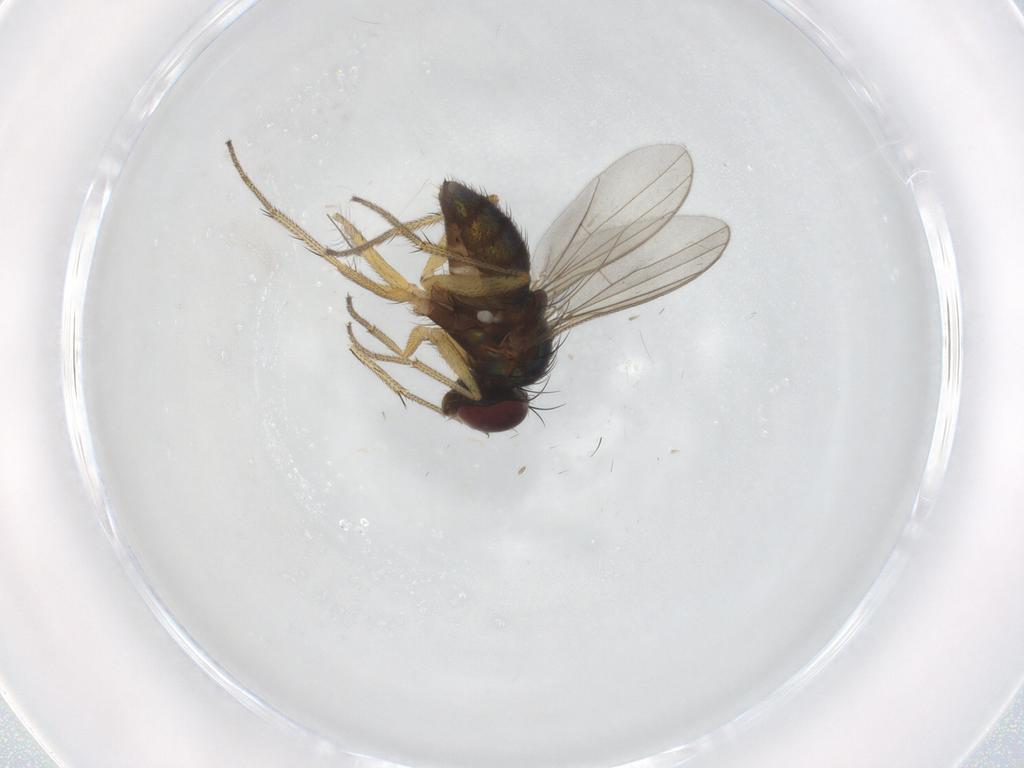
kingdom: Animalia
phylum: Arthropoda
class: Insecta
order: Diptera
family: Dolichopodidae
